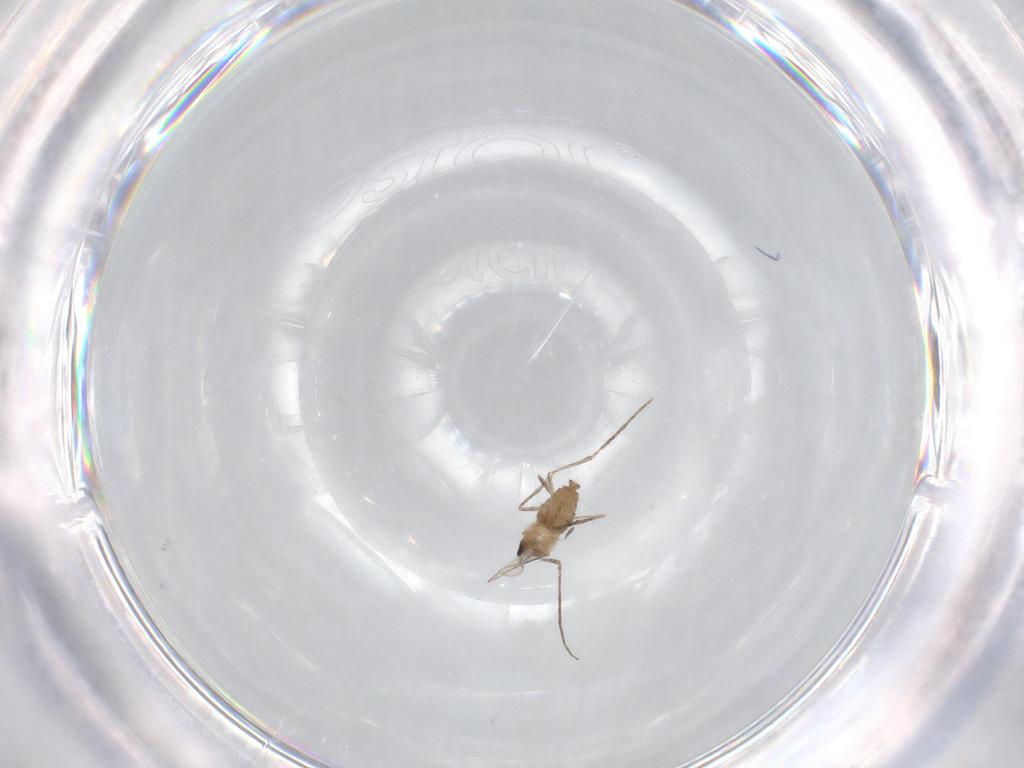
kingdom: Animalia
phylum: Arthropoda
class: Insecta
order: Diptera
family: Cecidomyiidae
